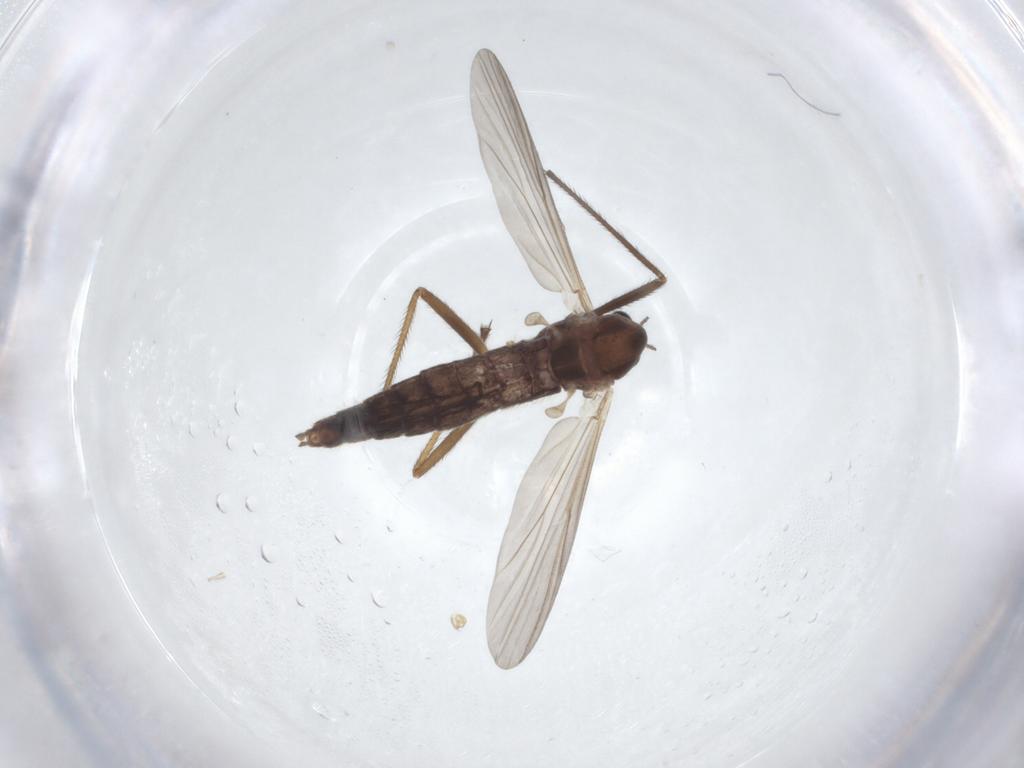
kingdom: Animalia
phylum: Arthropoda
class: Insecta
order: Diptera
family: Chironomidae
